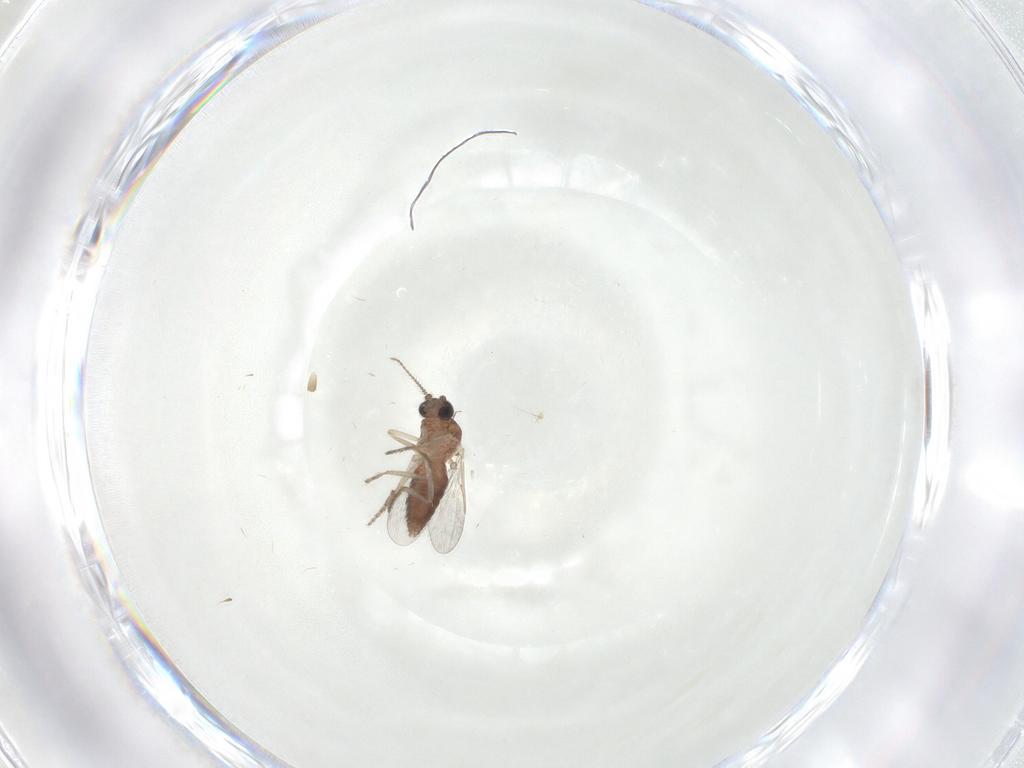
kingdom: Animalia
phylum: Arthropoda
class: Insecta
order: Diptera
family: Ceratopogonidae
